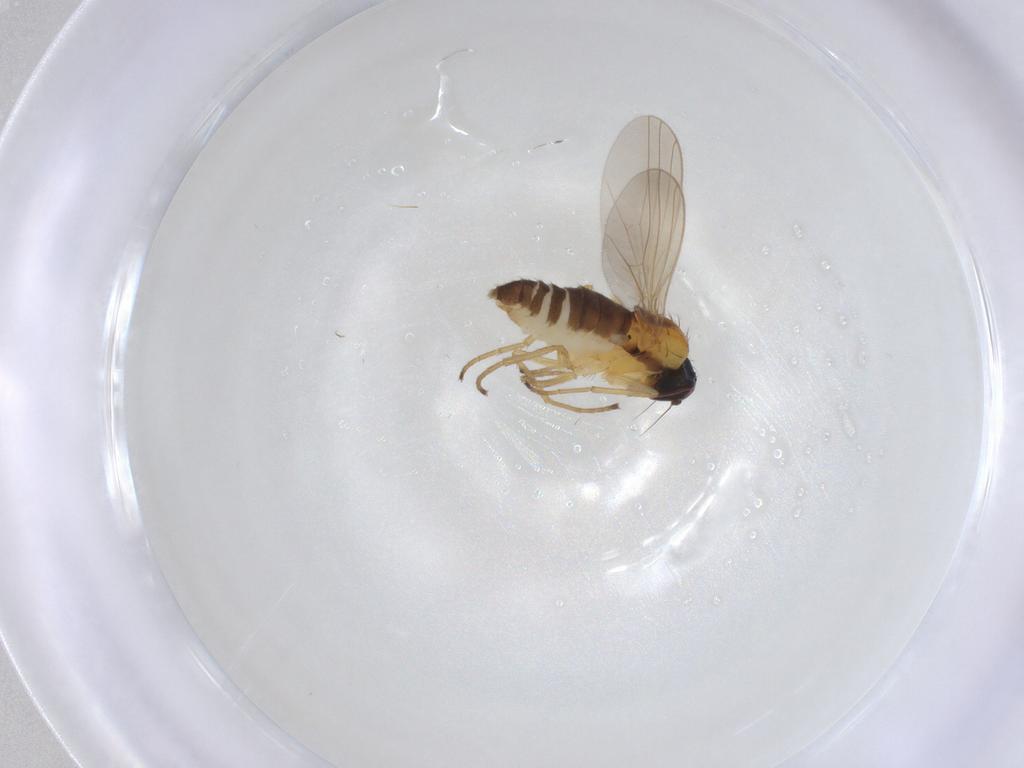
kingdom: Animalia
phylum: Arthropoda
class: Insecta
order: Diptera
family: Dolichopodidae
